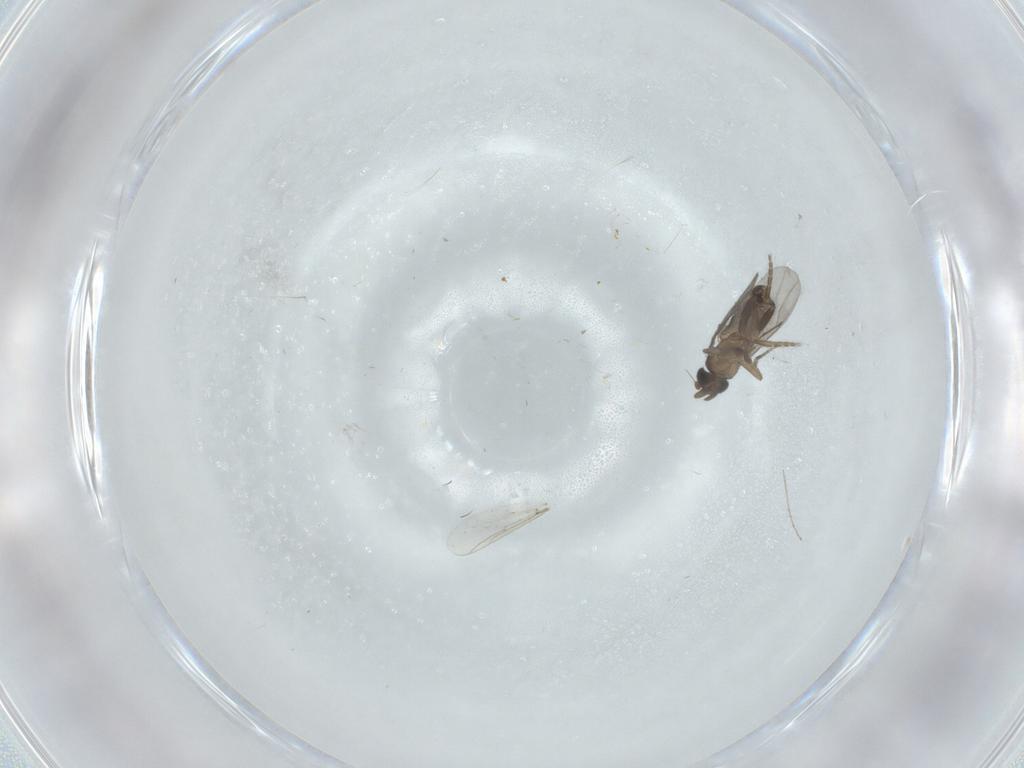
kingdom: Animalia
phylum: Arthropoda
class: Insecta
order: Diptera
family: Chironomidae
